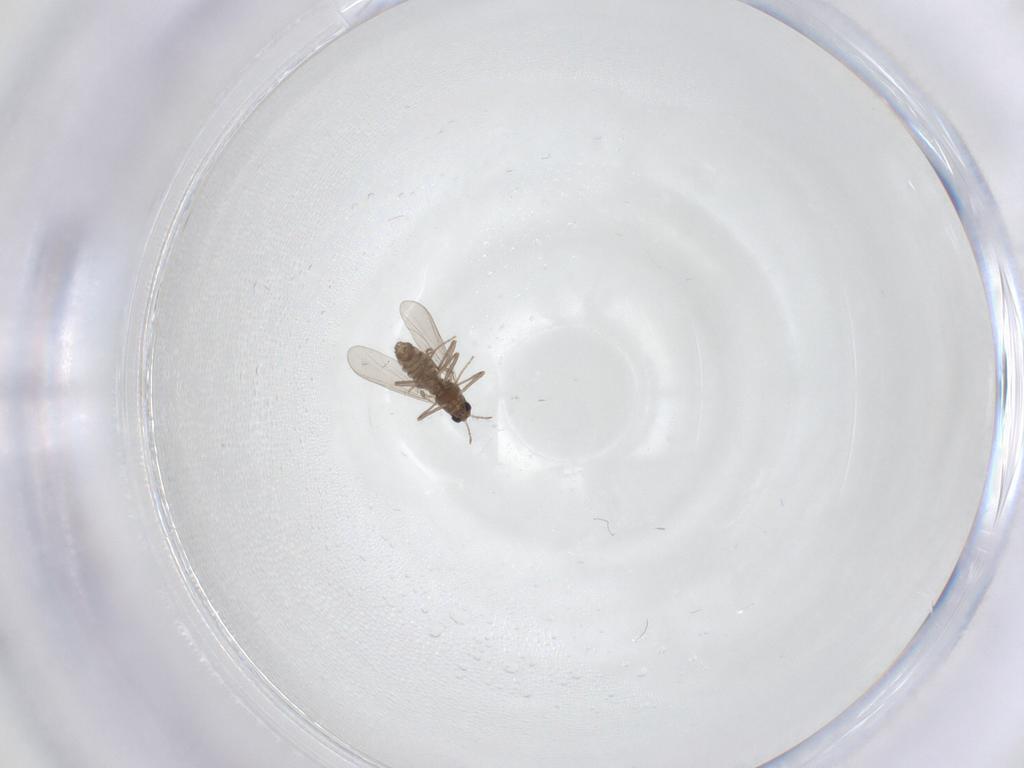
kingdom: Animalia
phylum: Arthropoda
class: Insecta
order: Diptera
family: Chironomidae
